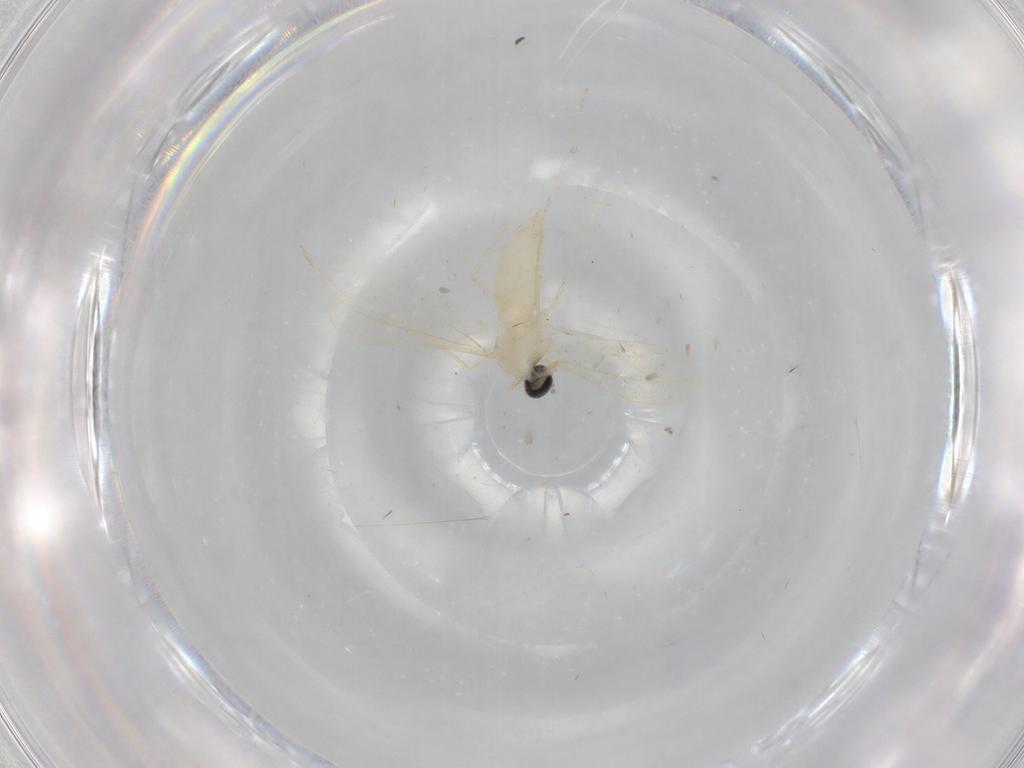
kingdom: Animalia
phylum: Arthropoda
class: Insecta
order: Diptera
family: Cecidomyiidae
